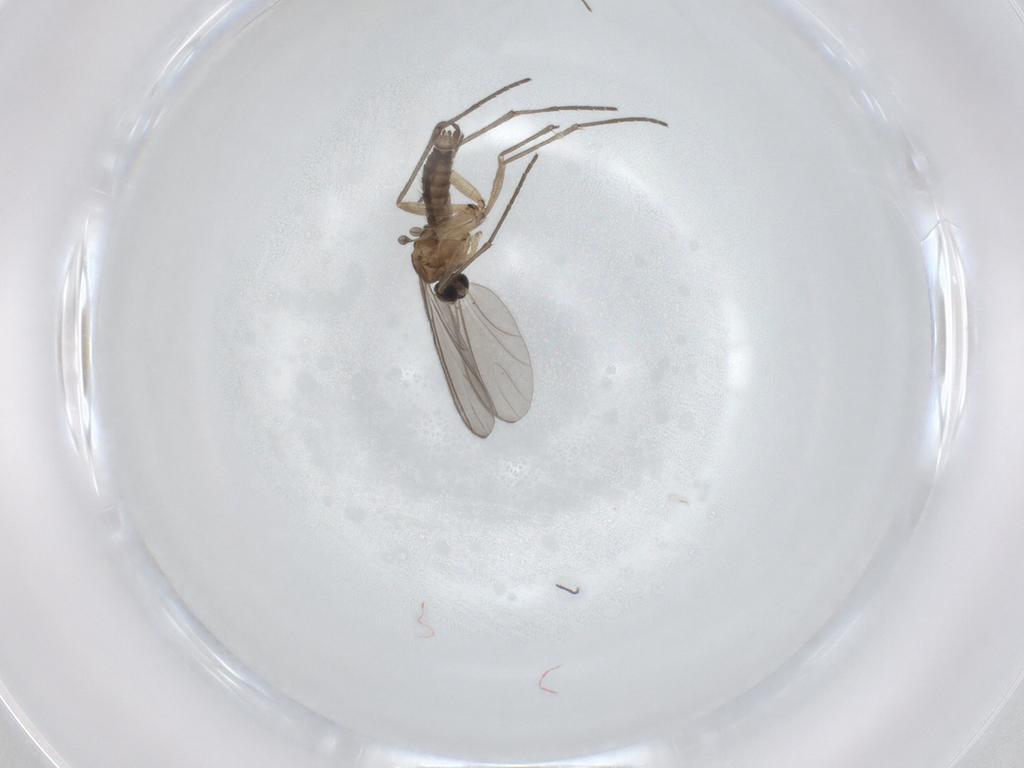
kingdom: Animalia
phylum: Arthropoda
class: Insecta
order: Diptera
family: Sciaridae
